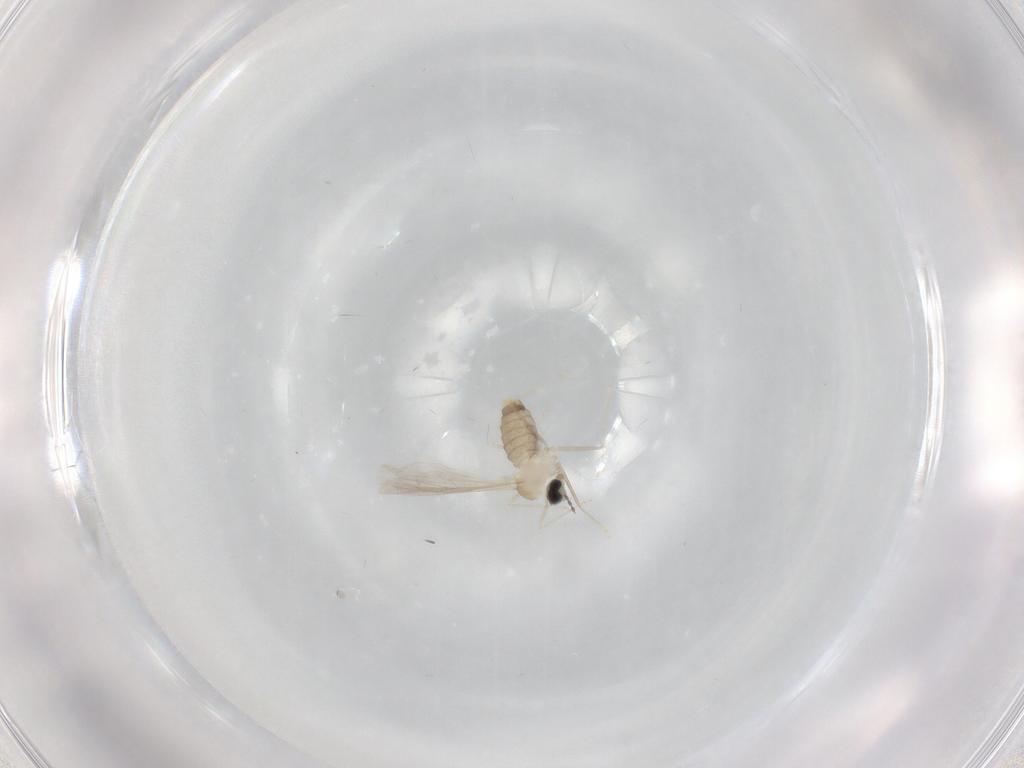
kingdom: Animalia
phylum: Arthropoda
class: Insecta
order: Diptera
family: Cecidomyiidae
